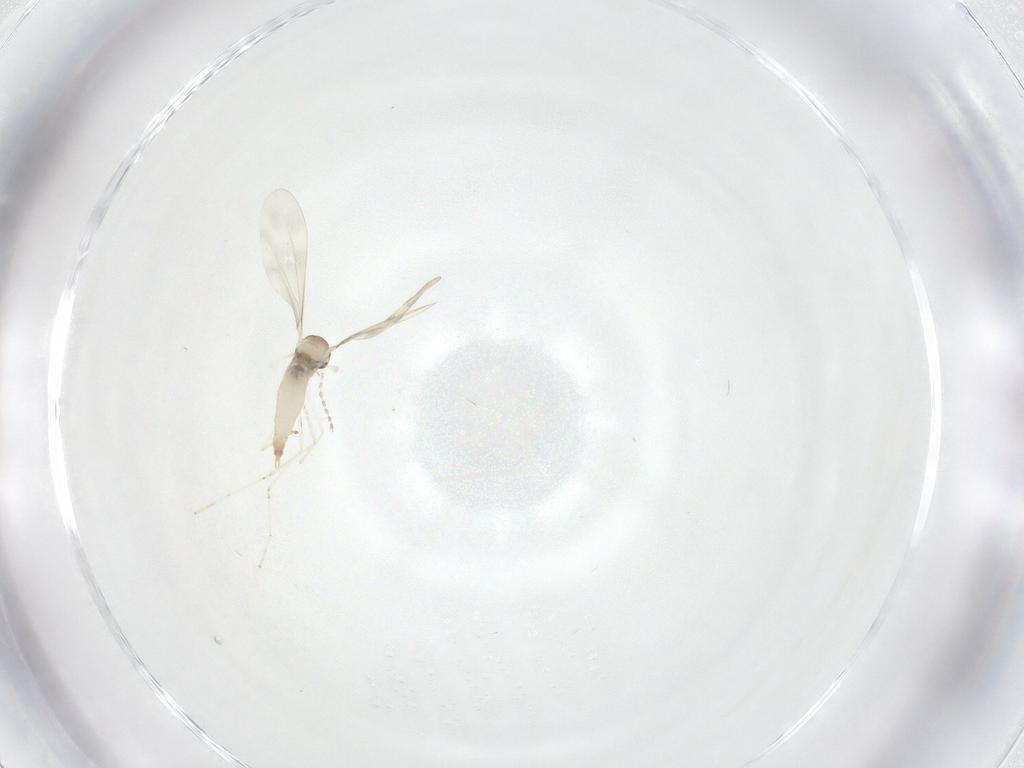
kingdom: Animalia
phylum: Arthropoda
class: Insecta
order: Diptera
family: Cecidomyiidae
